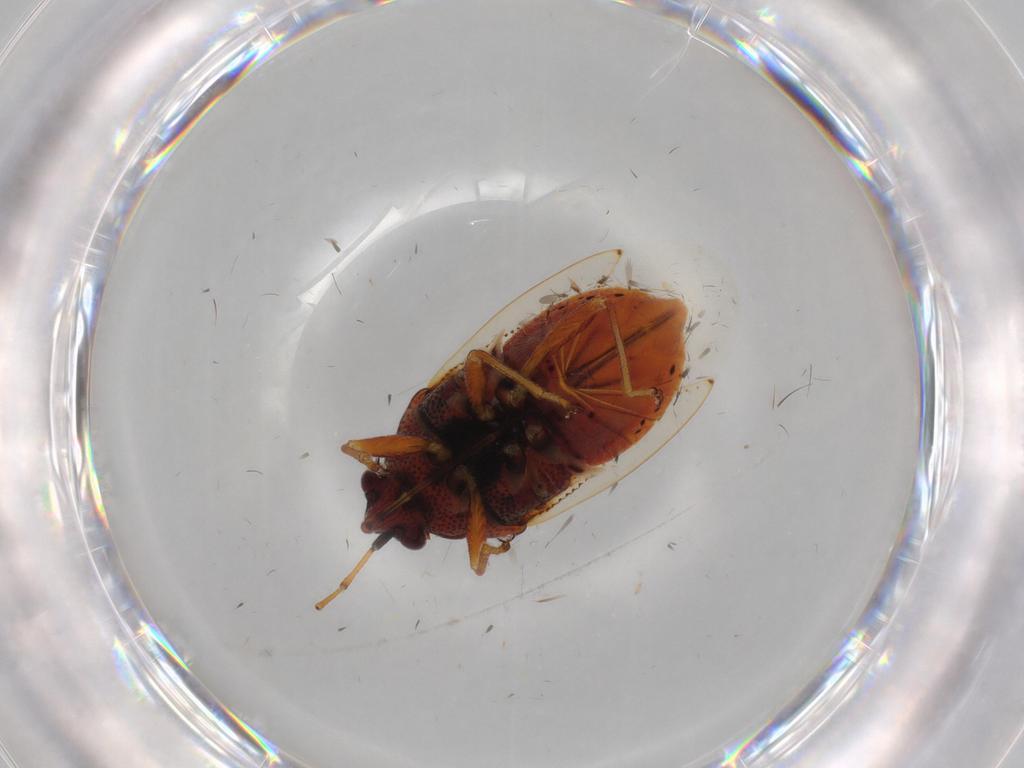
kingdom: Animalia
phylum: Arthropoda
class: Insecta
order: Hemiptera
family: Lygaeidae
